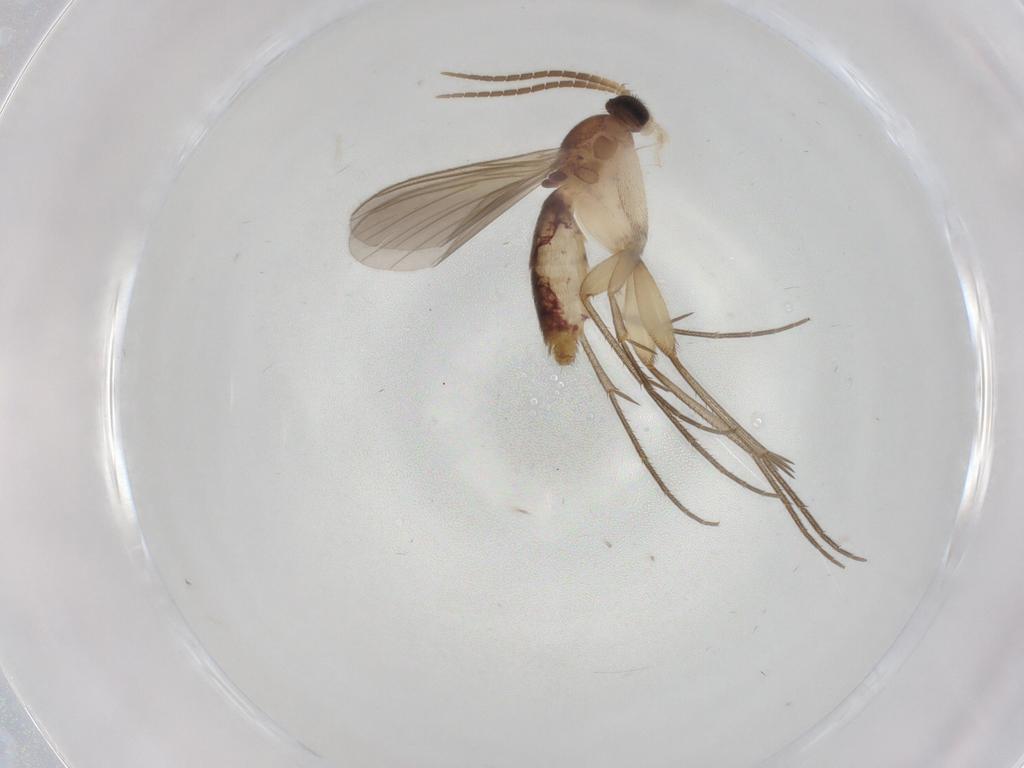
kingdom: Animalia
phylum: Arthropoda
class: Insecta
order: Diptera
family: Mycetophilidae
